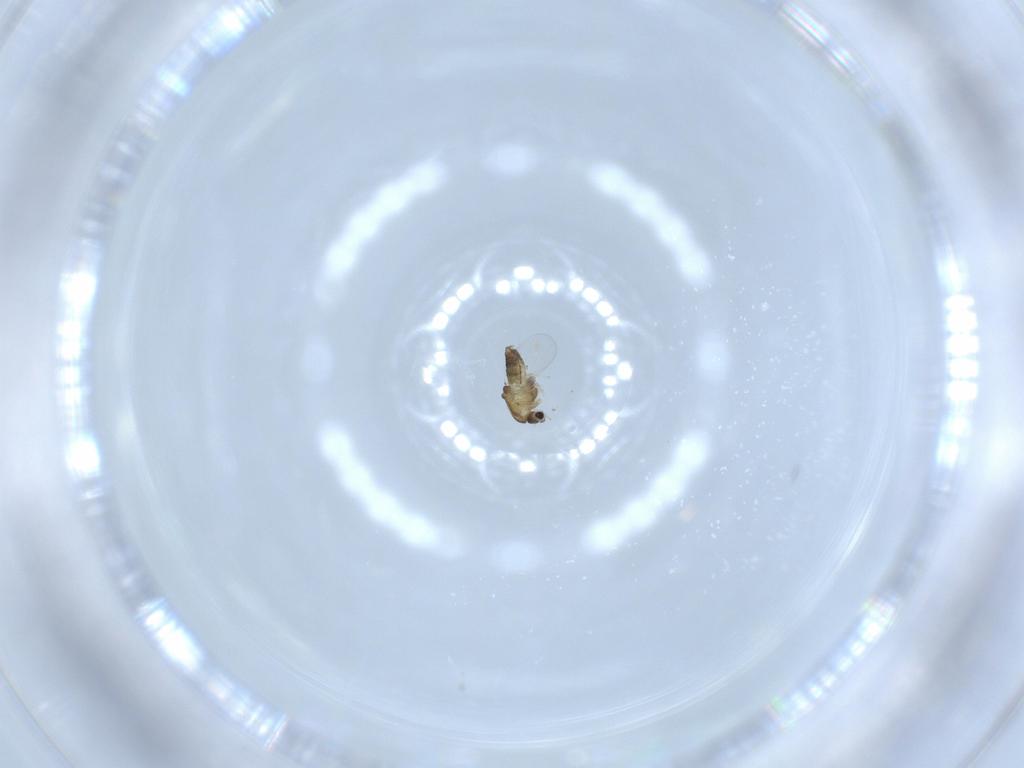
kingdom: Animalia
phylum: Arthropoda
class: Insecta
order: Diptera
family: Chironomidae
